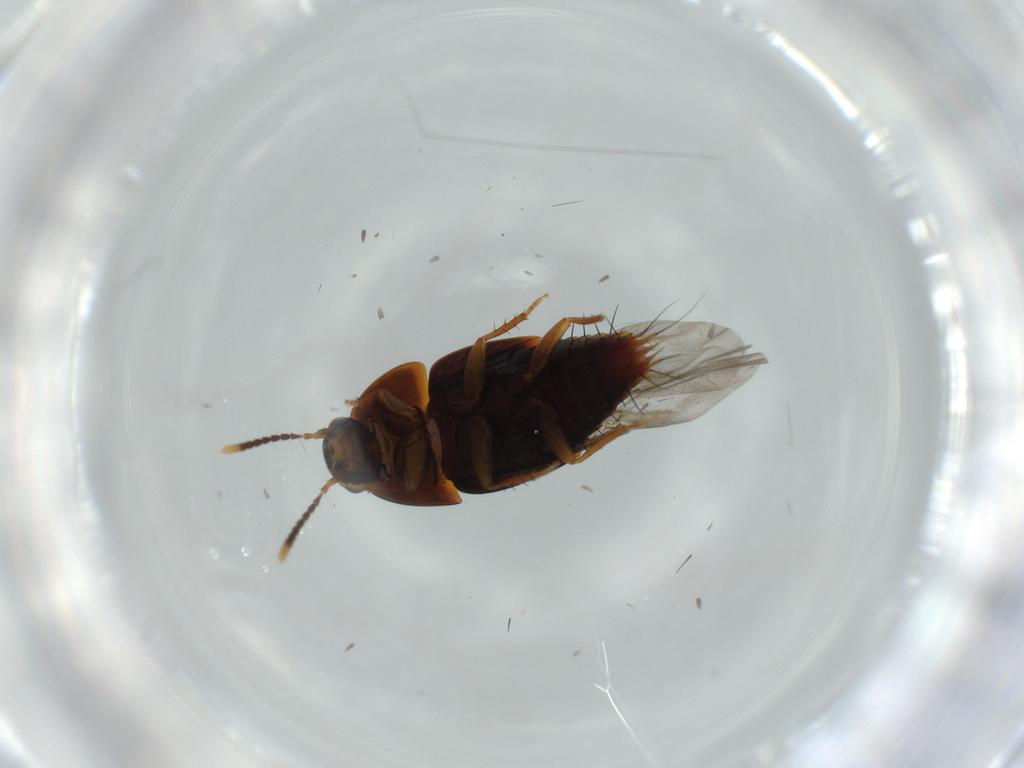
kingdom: Animalia
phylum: Arthropoda
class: Insecta
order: Coleoptera
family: Staphylinidae
